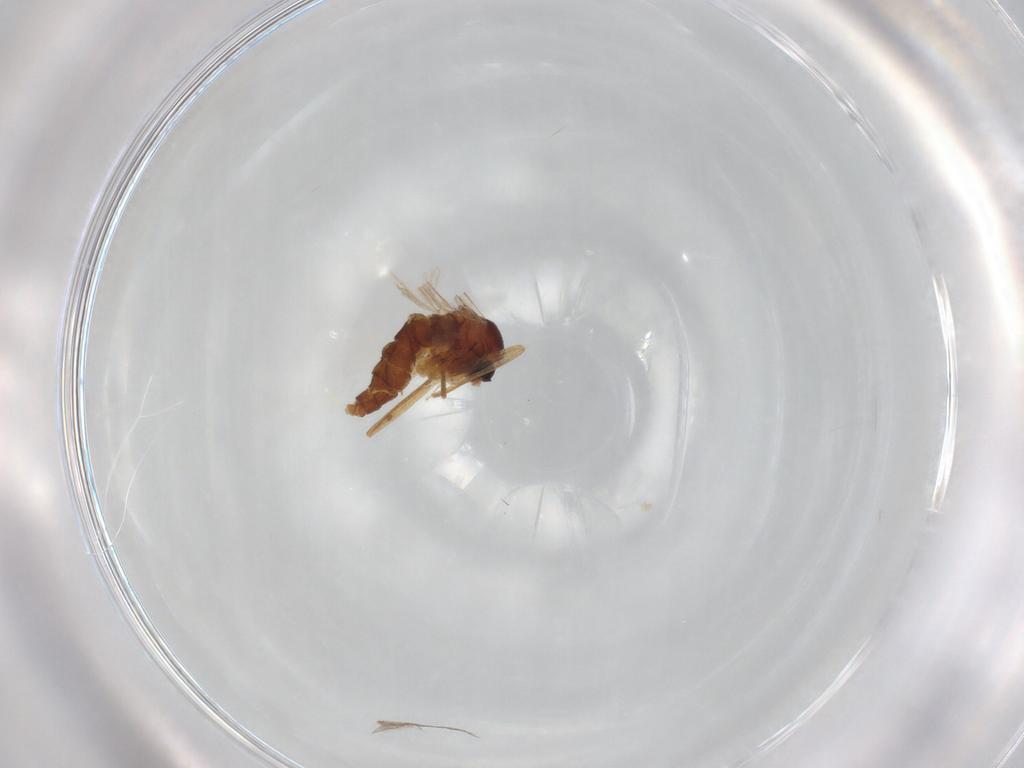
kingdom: Animalia
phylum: Arthropoda
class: Insecta
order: Diptera
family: Cecidomyiidae
